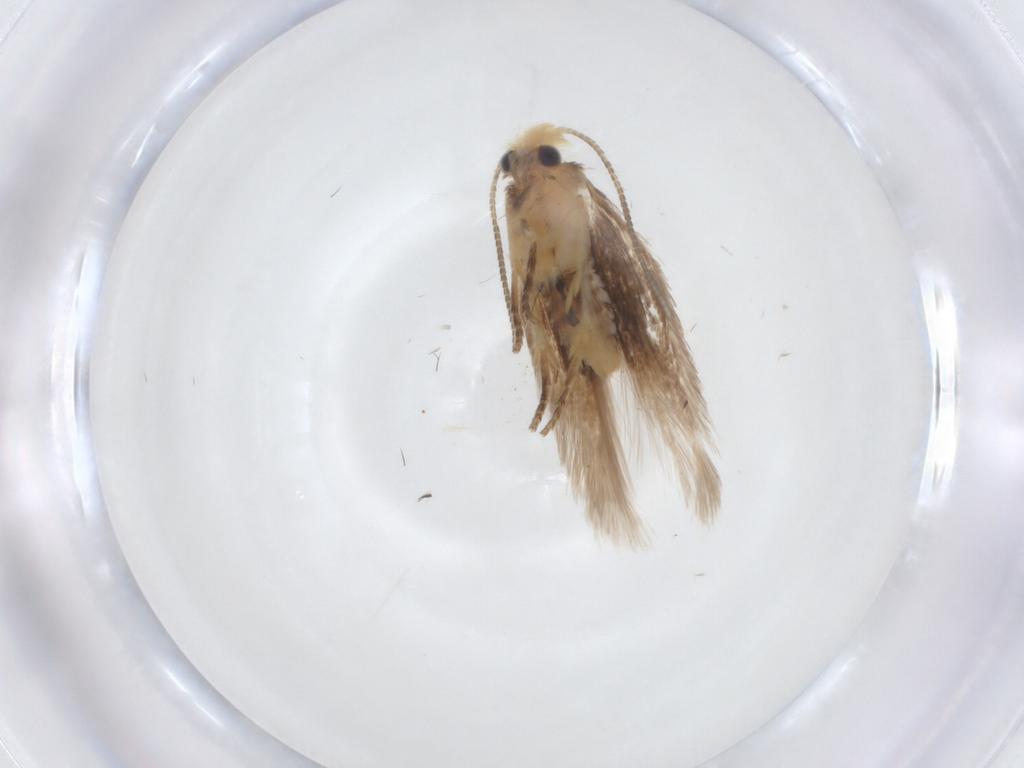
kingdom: Animalia
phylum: Arthropoda
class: Insecta
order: Lepidoptera
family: Nepticulidae
